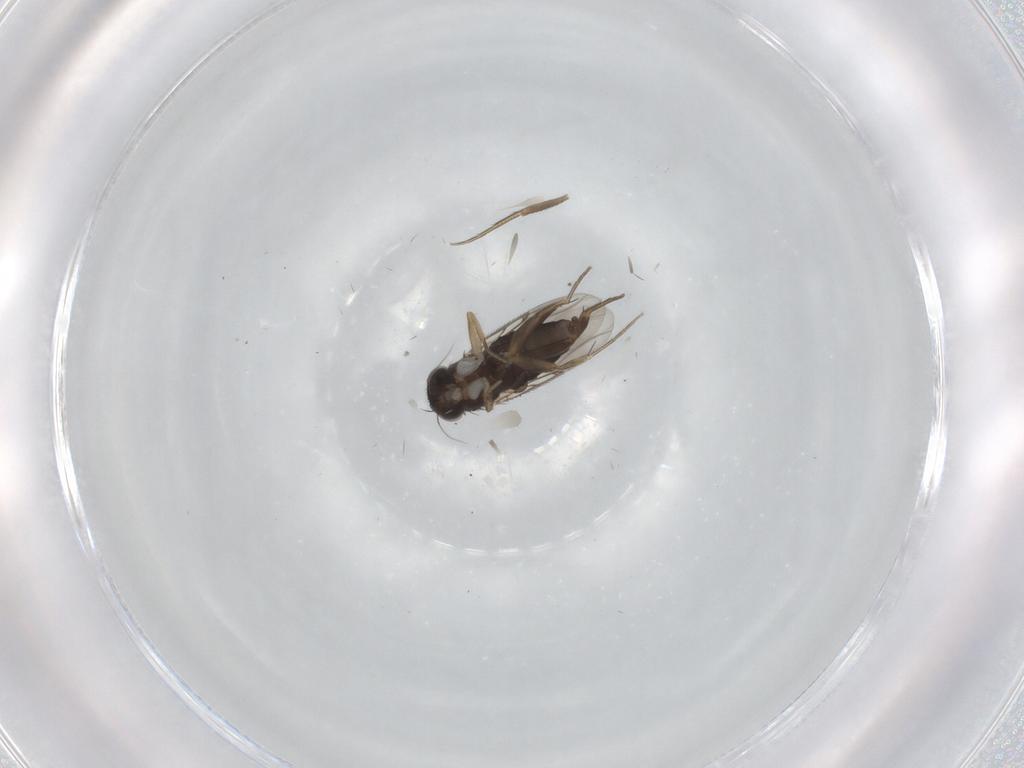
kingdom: Animalia
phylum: Arthropoda
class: Insecta
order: Diptera
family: Phoridae
